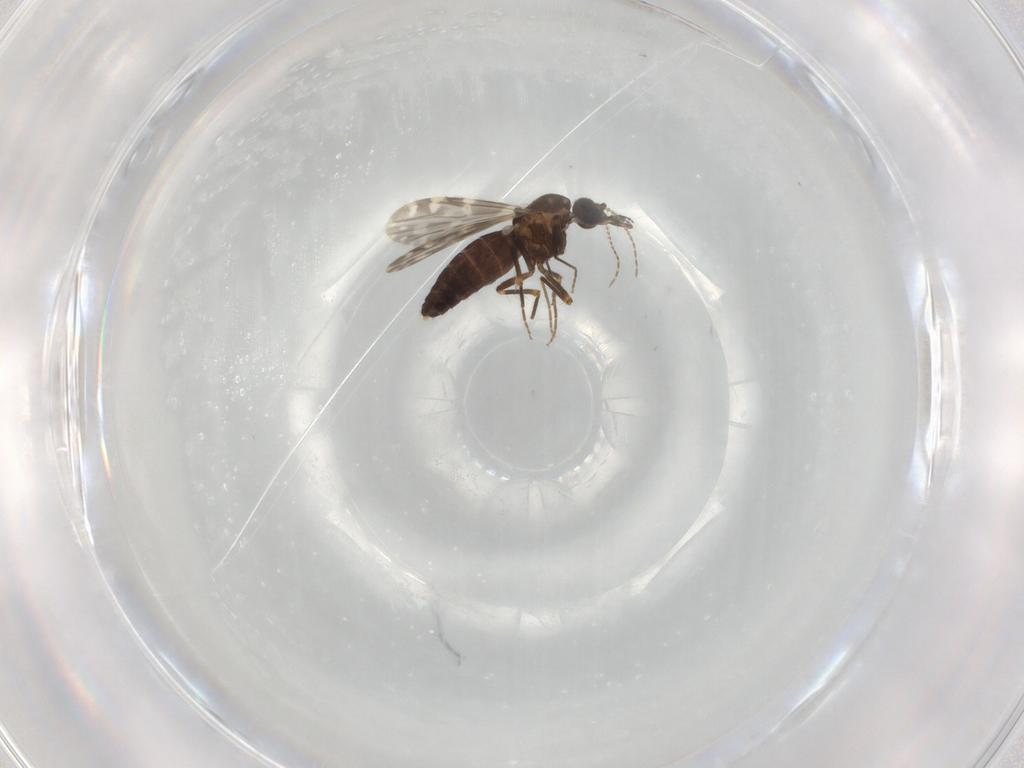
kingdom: Animalia
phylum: Arthropoda
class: Insecta
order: Diptera
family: Ceratopogonidae
